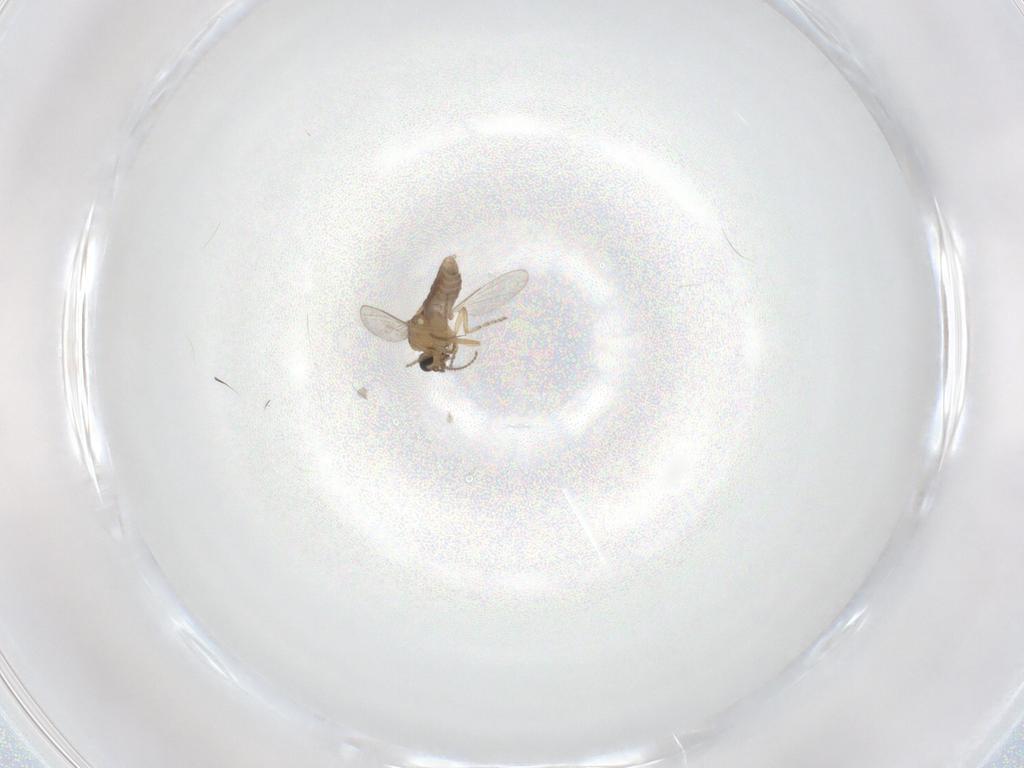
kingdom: Animalia
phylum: Arthropoda
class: Insecta
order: Diptera
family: Ceratopogonidae
